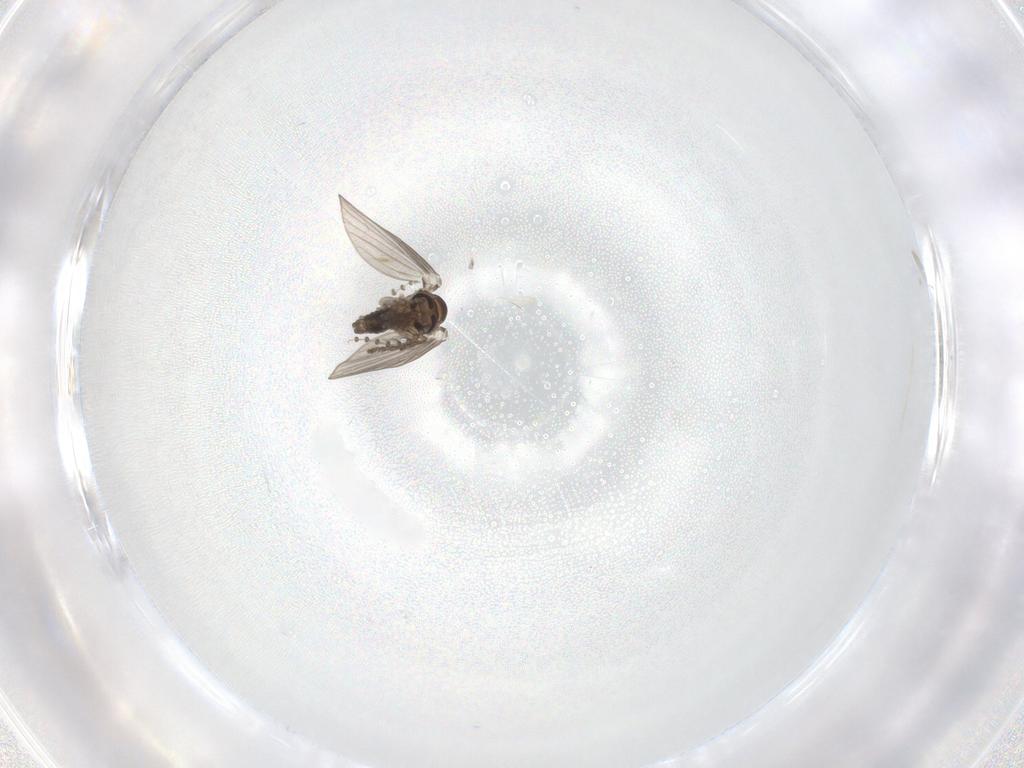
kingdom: Animalia
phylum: Arthropoda
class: Insecta
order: Diptera
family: Psychodidae
